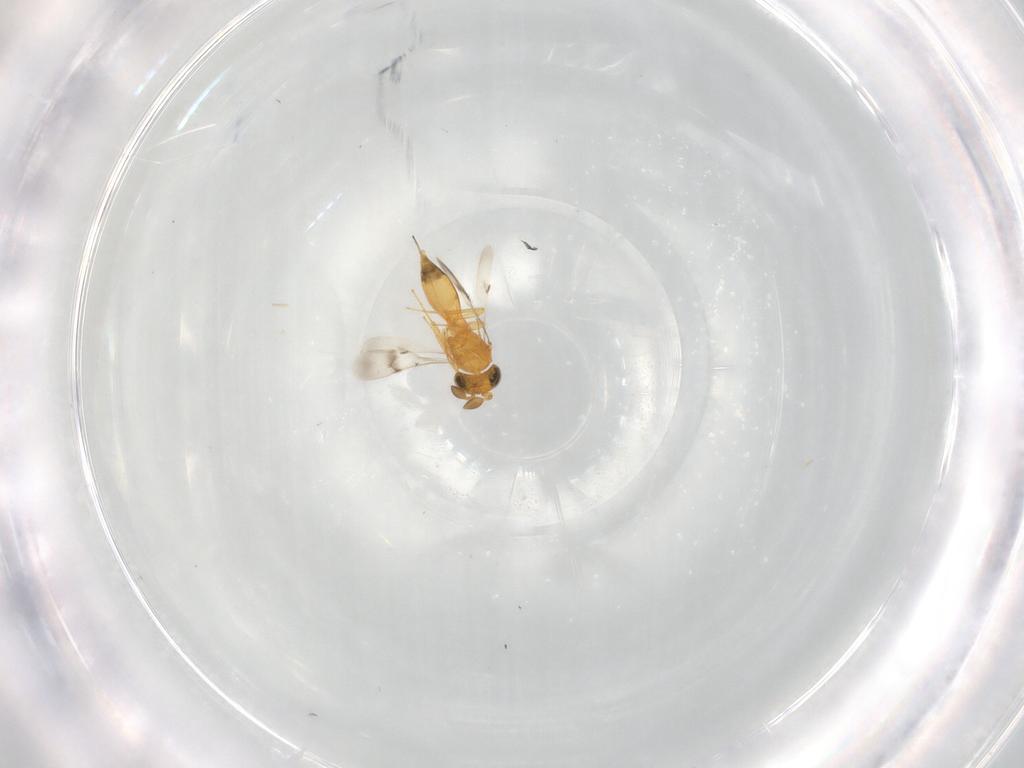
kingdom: Animalia
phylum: Arthropoda
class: Insecta
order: Hymenoptera
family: Scelionidae
